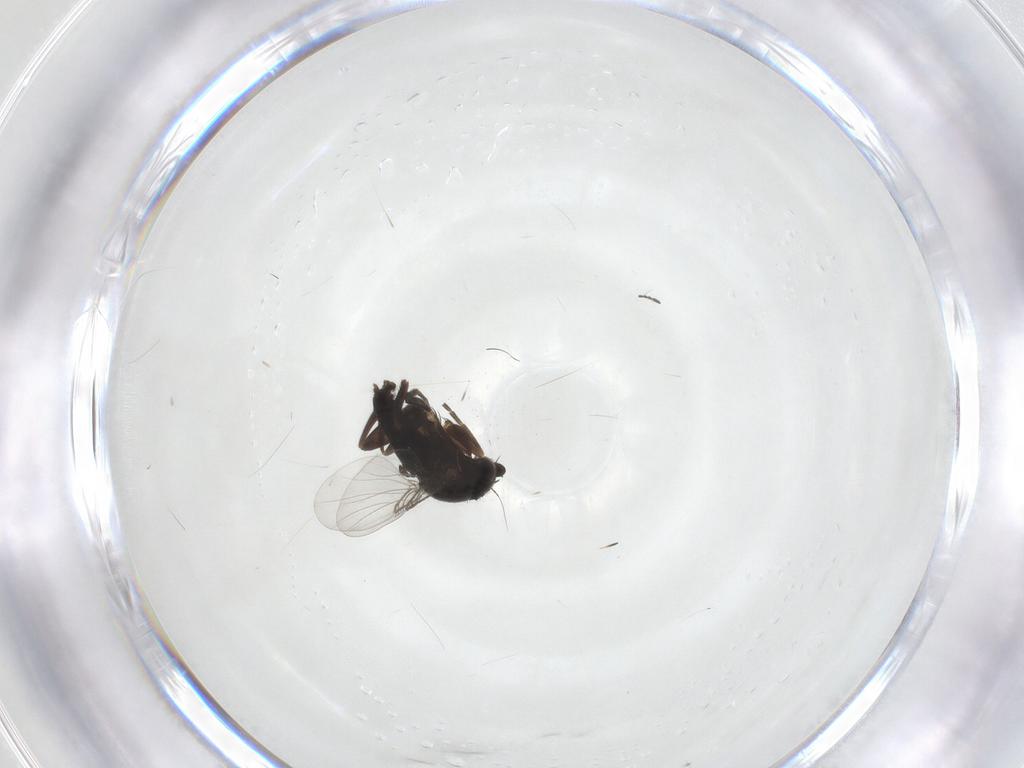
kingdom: Animalia
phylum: Arthropoda
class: Insecta
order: Diptera
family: Phoridae
